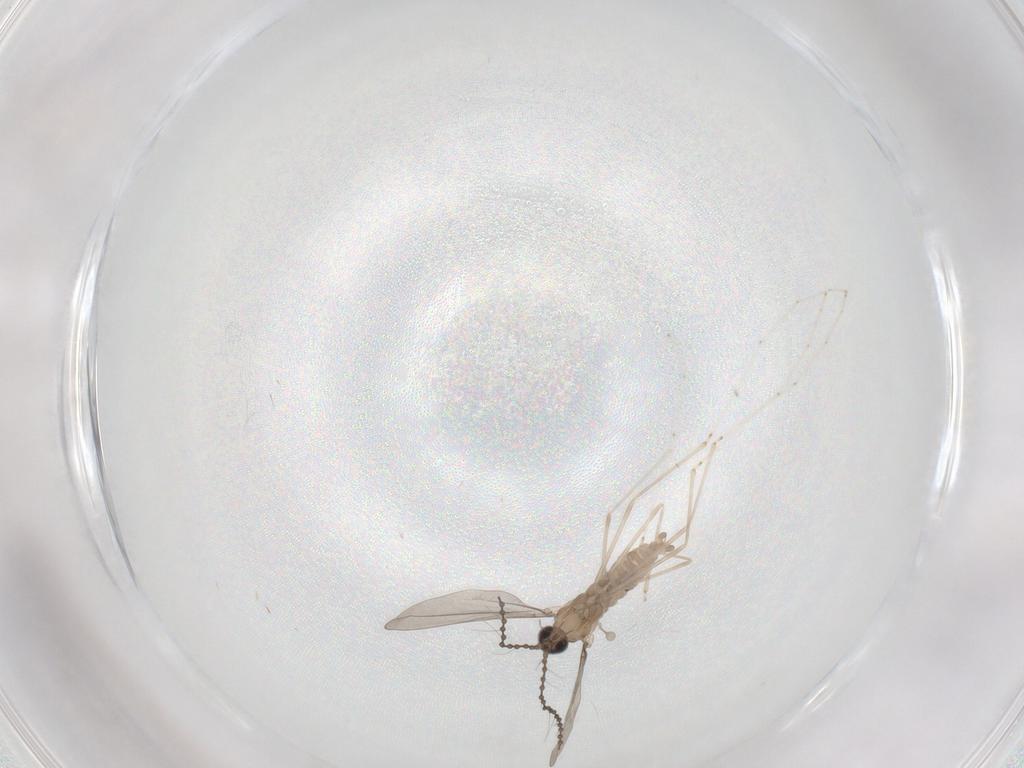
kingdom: Animalia
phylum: Arthropoda
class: Insecta
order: Diptera
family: Cecidomyiidae
